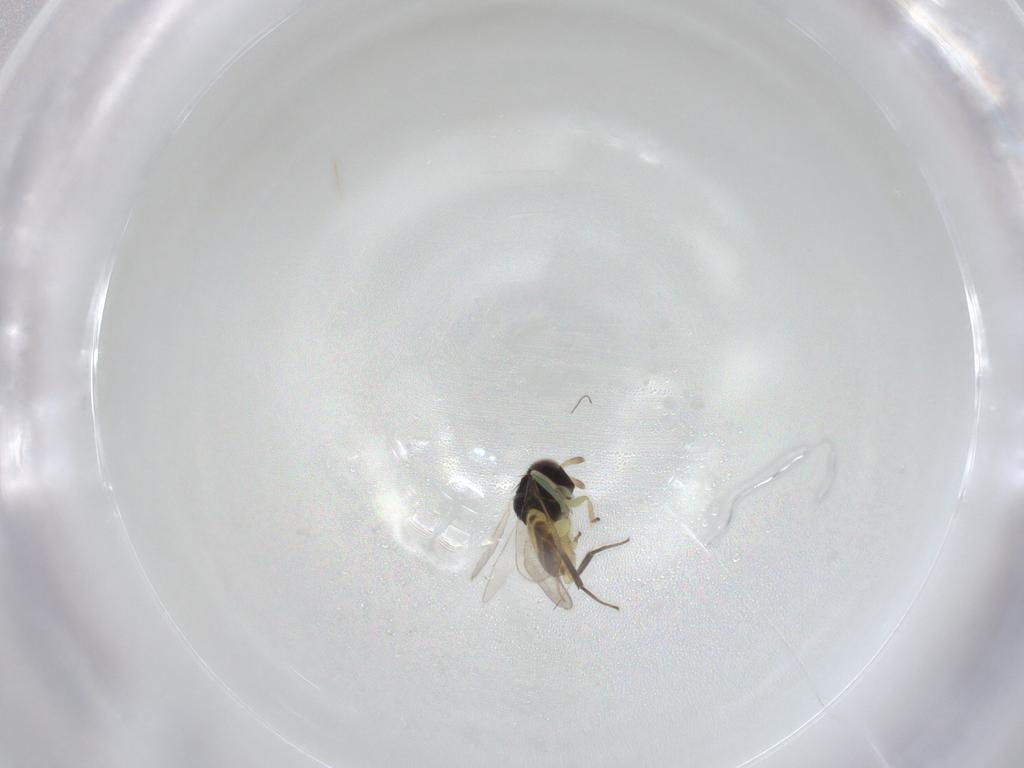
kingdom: Animalia
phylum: Arthropoda
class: Insecta
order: Hymenoptera
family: Aphelinidae
